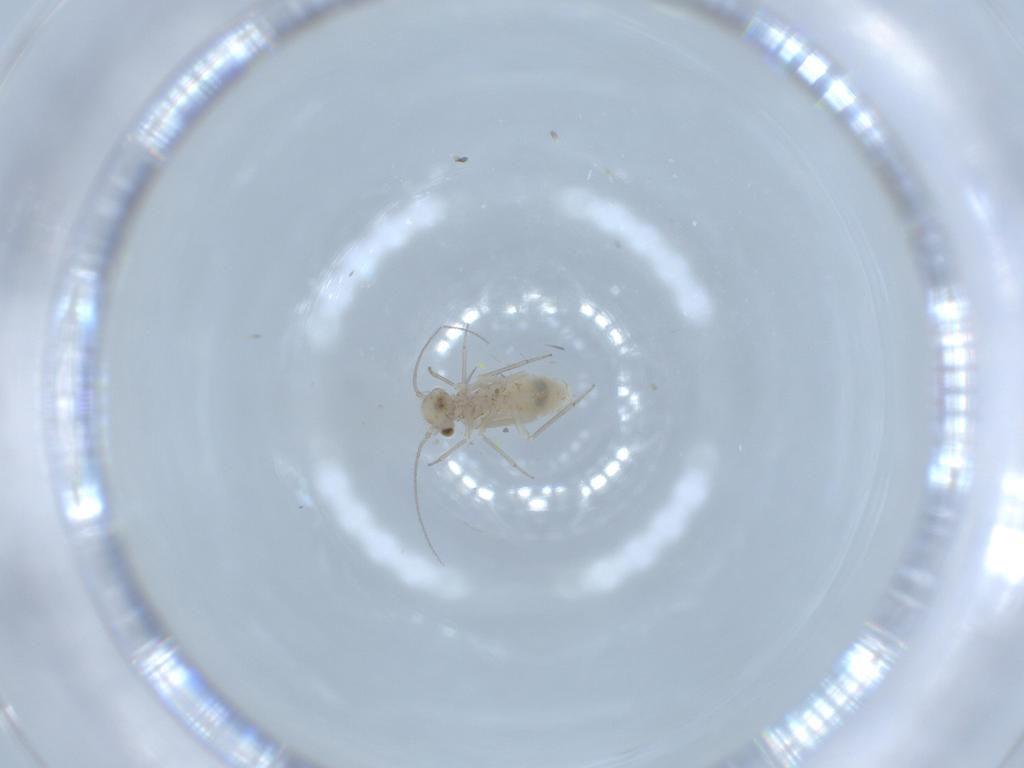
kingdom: Animalia
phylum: Arthropoda
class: Insecta
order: Psocodea
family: Lachesillidae
